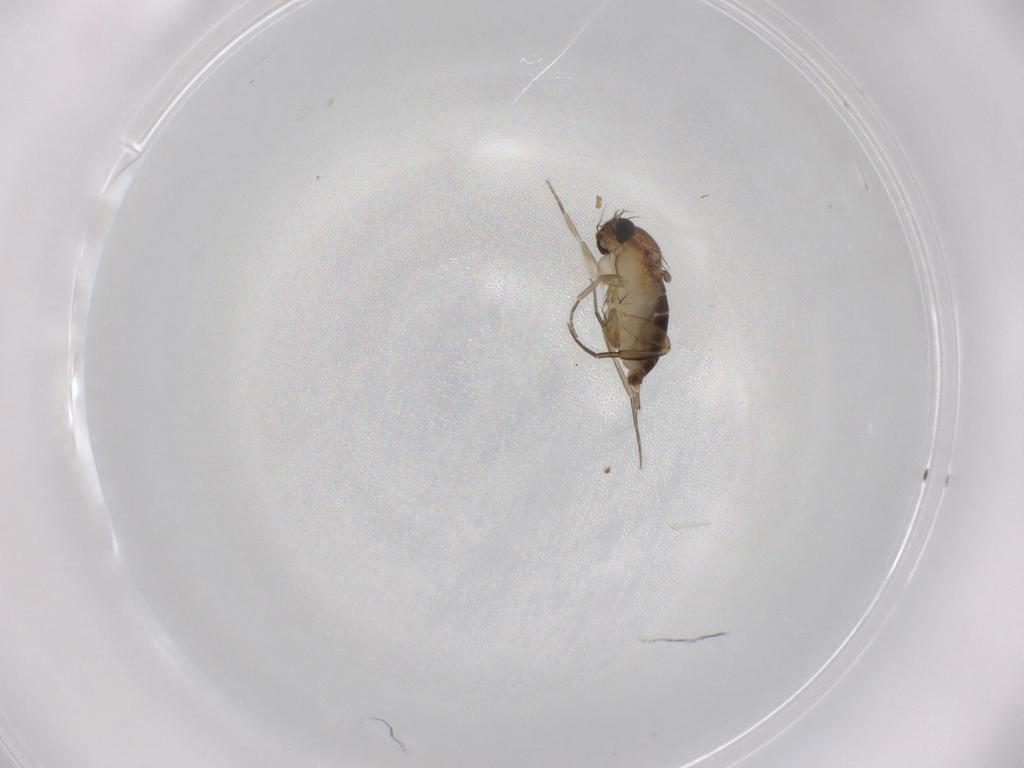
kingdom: Animalia
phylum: Arthropoda
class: Insecta
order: Diptera
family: Phoridae
